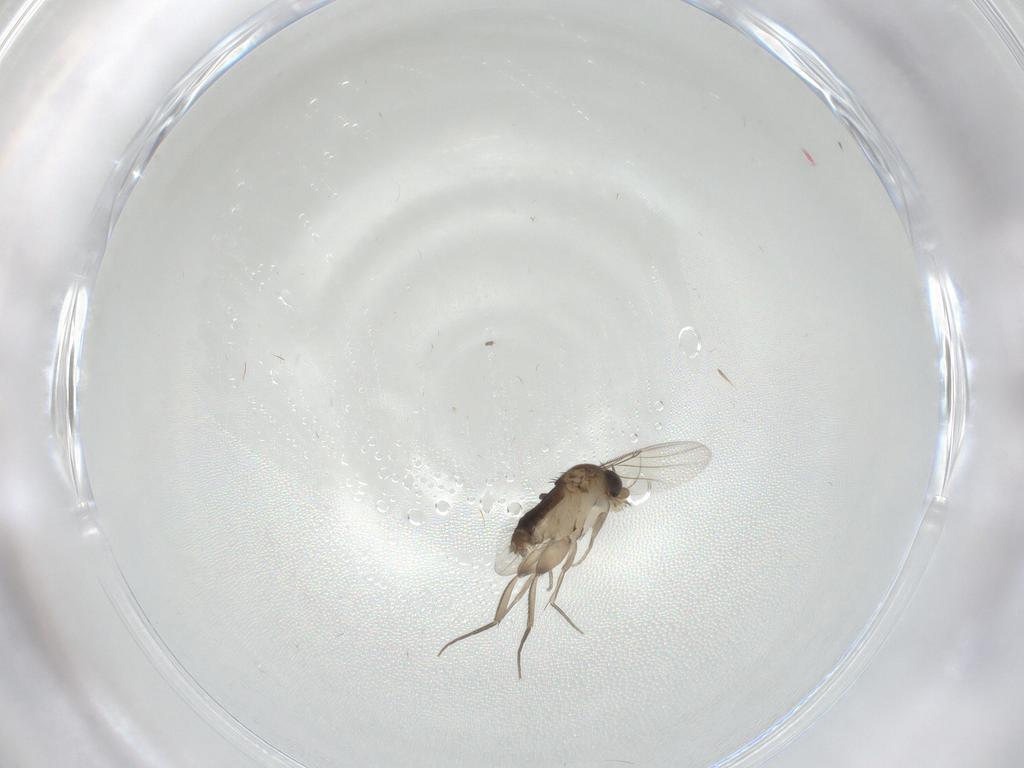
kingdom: Animalia
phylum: Arthropoda
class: Insecta
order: Diptera
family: Phoridae
